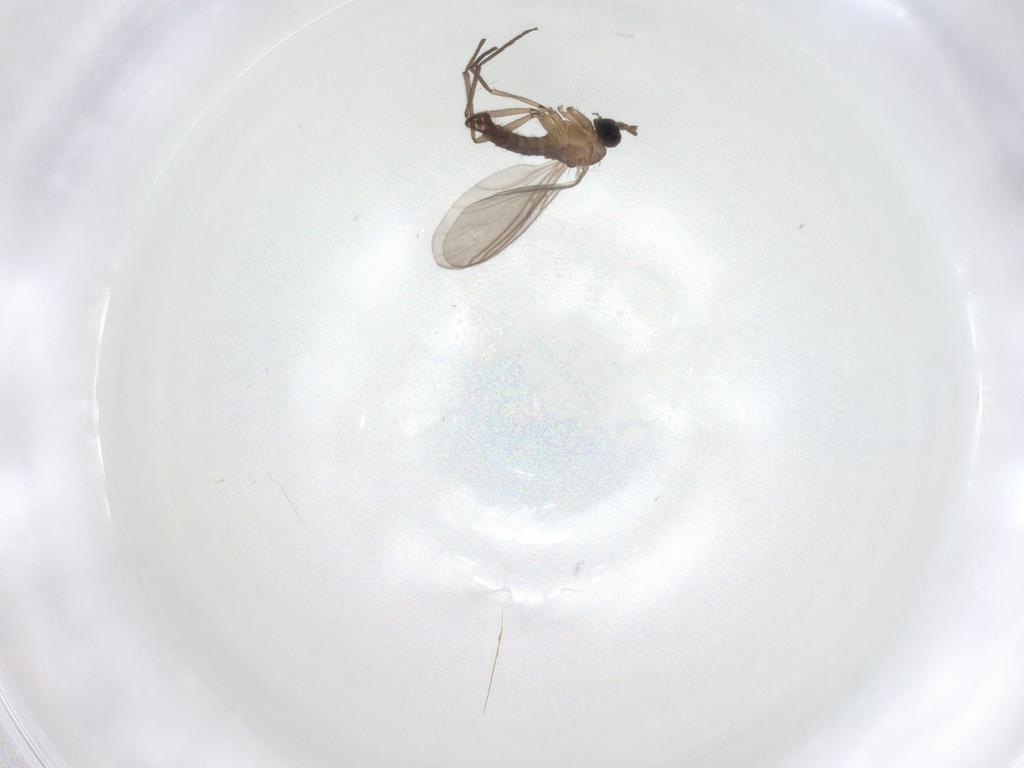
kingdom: Animalia
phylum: Arthropoda
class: Insecta
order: Diptera
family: Sciaridae
